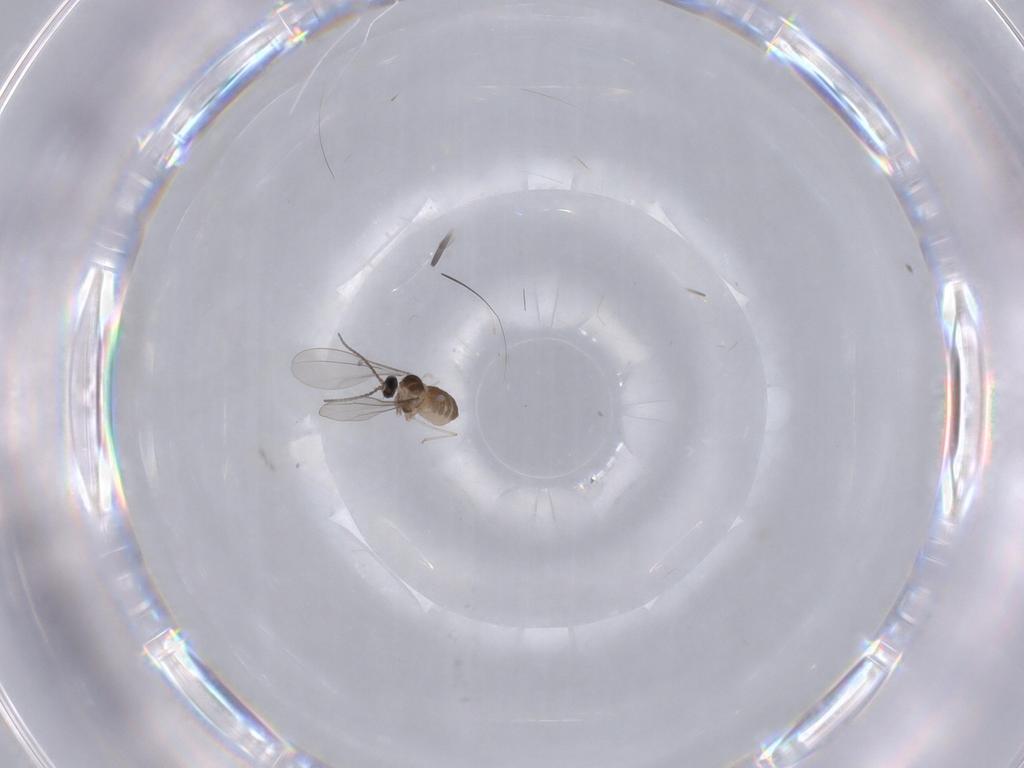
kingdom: Animalia
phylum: Arthropoda
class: Insecta
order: Diptera
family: Cecidomyiidae
